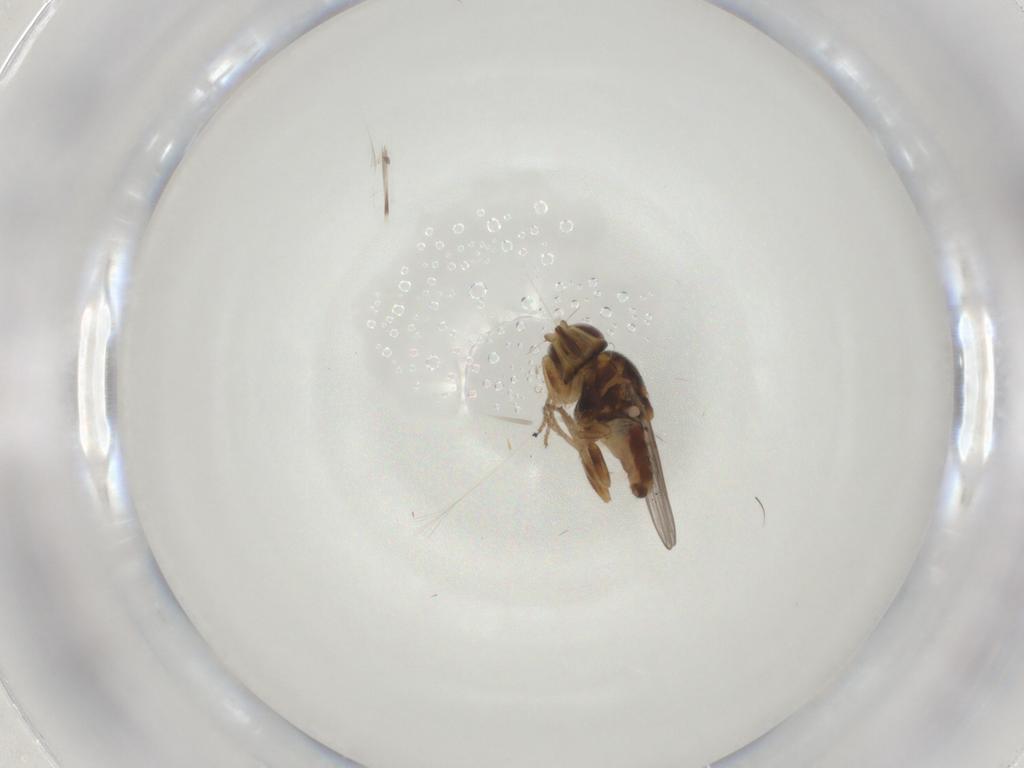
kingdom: Animalia
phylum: Arthropoda
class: Insecta
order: Diptera
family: Chloropidae
